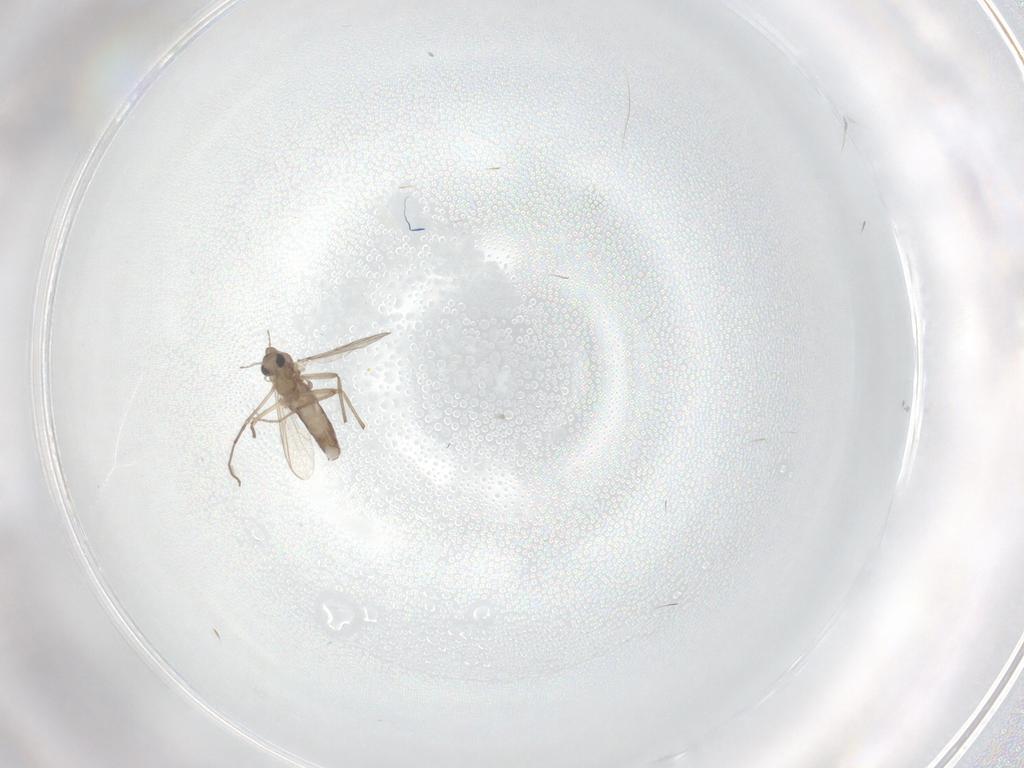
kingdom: Animalia
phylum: Arthropoda
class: Insecta
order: Diptera
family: Chironomidae
